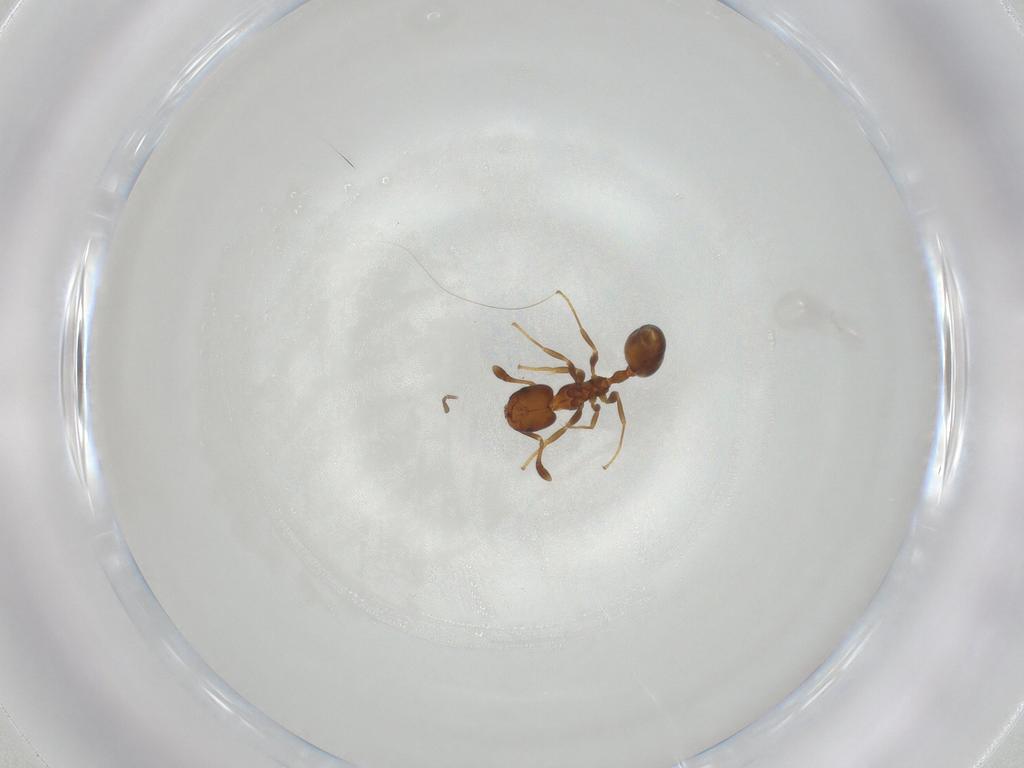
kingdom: Animalia
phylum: Arthropoda
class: Insecta
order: Hymenoptera
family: Formicidae
